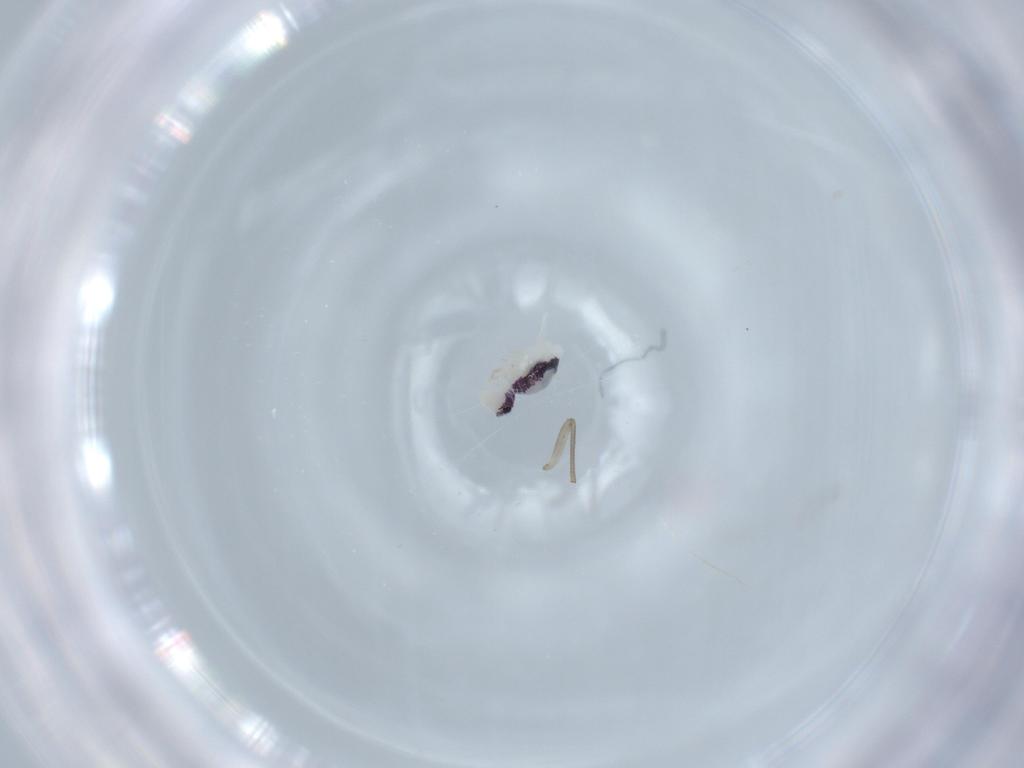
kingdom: Animalia
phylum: Arthropoda
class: Collembola
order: Symphypleona
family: Bourletiellidae
